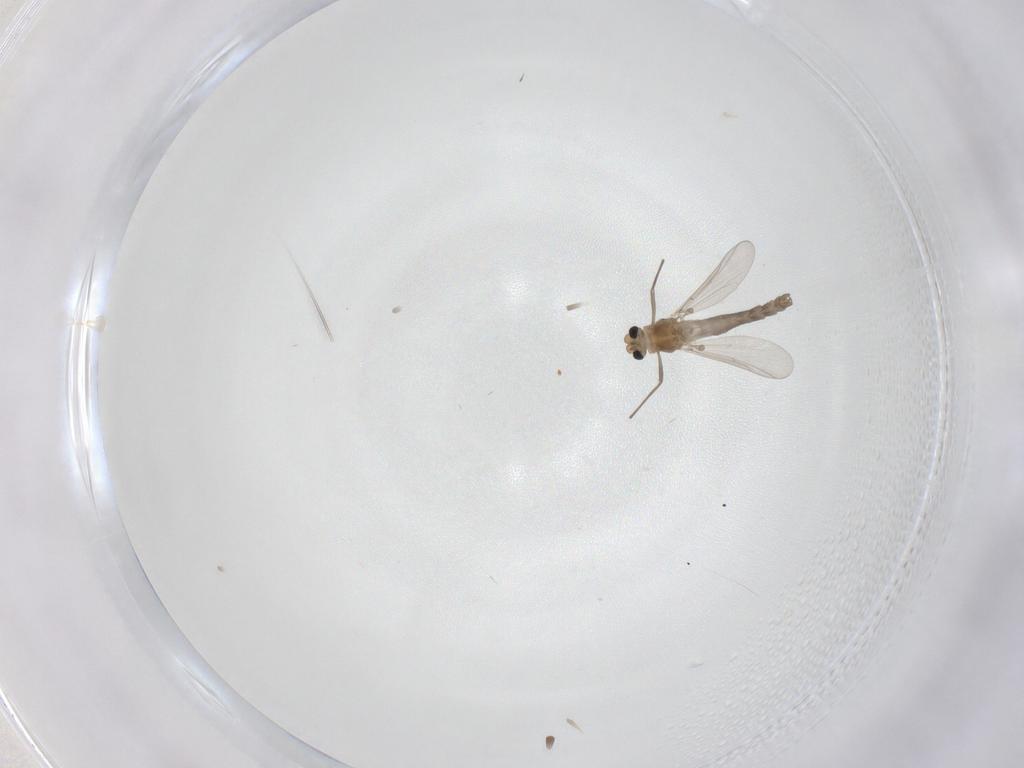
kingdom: Animalia
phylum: Arthropoda
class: Insecta
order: Diptera
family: Chironomidae
